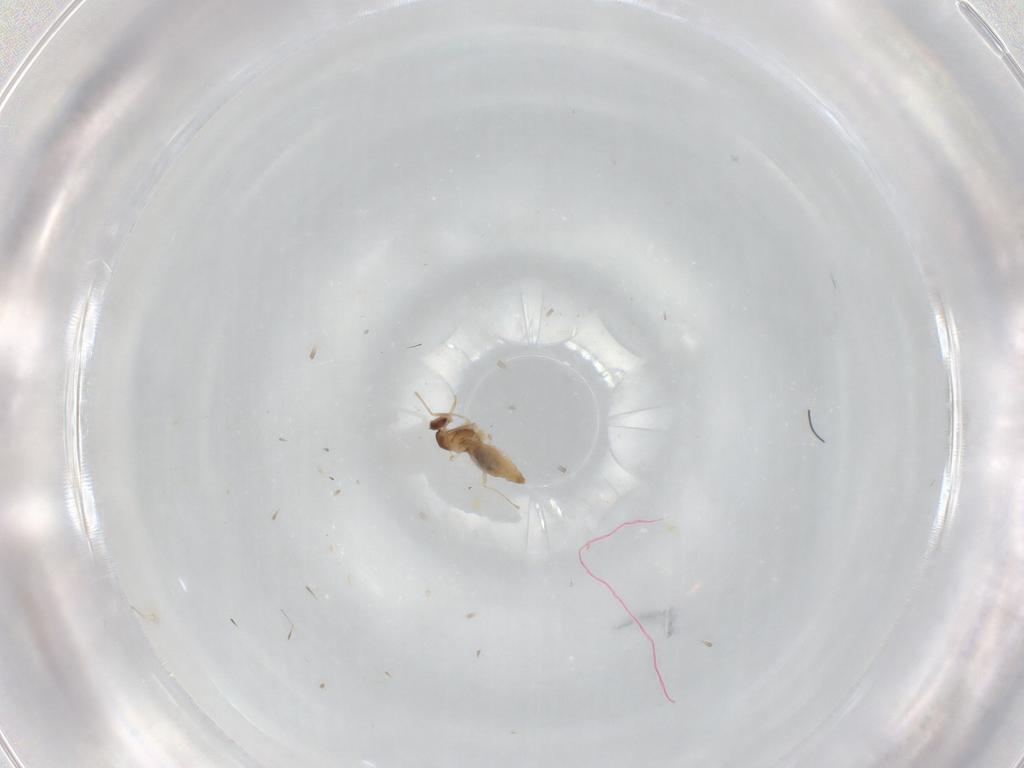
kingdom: Animalia
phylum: Arthropoda
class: Insecta
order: Diptera
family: Cecidomyiidae
